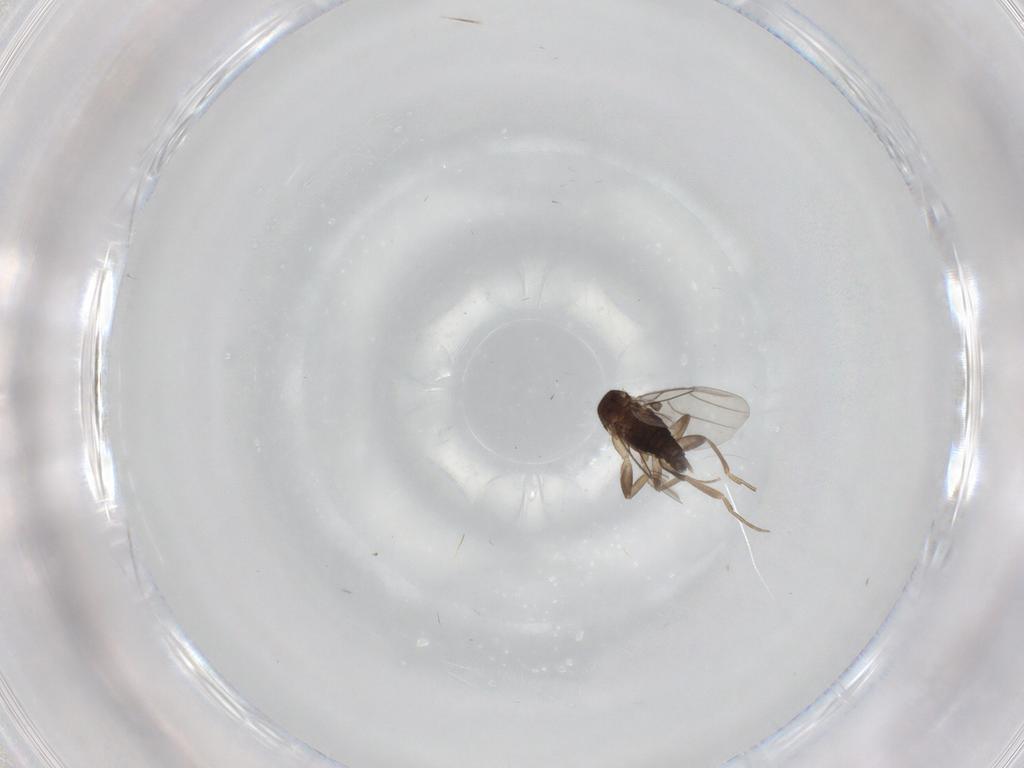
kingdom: Animalia
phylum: Arthropoda
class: Insecta
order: Diptera
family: Phoridae
